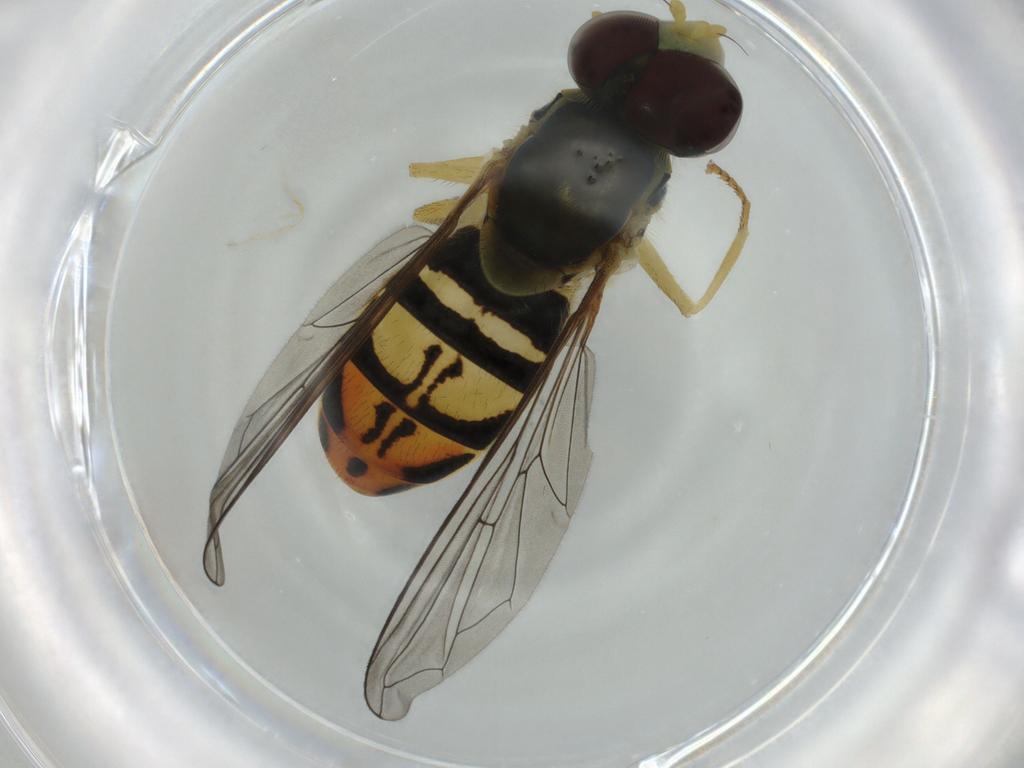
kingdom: Animalia
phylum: Arthropoda
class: Insecta
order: Diptera
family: Syrphidae
